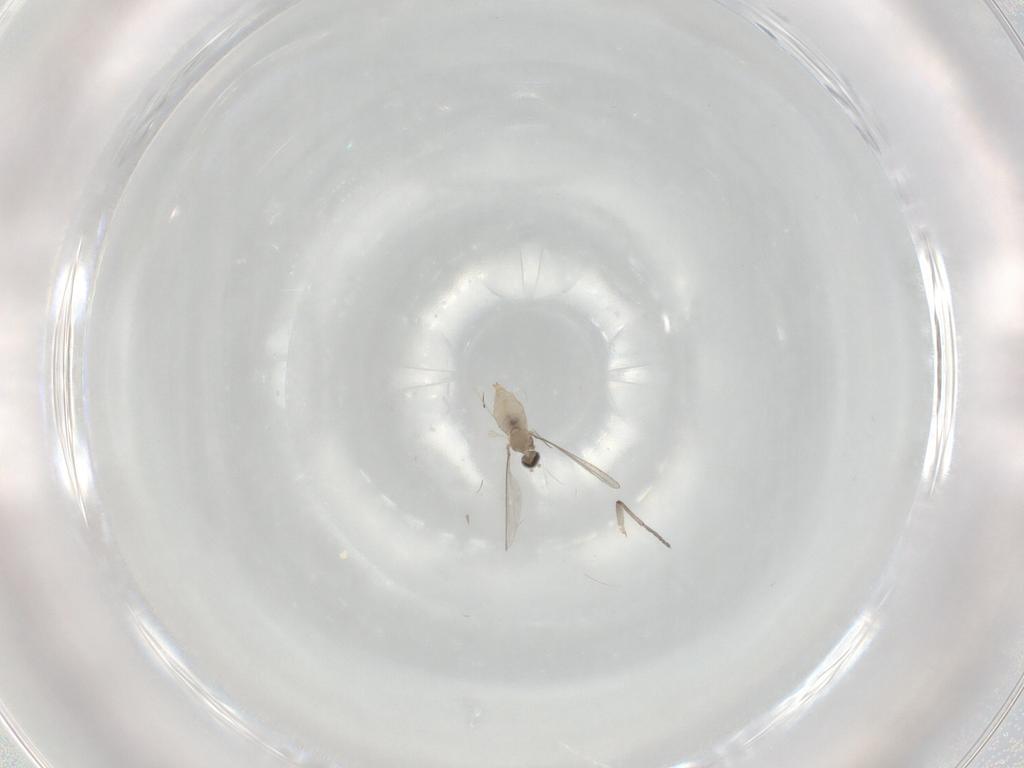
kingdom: Animalia
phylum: Arthropoda
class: Insecta
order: Diptera
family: Cecidomyiidae
